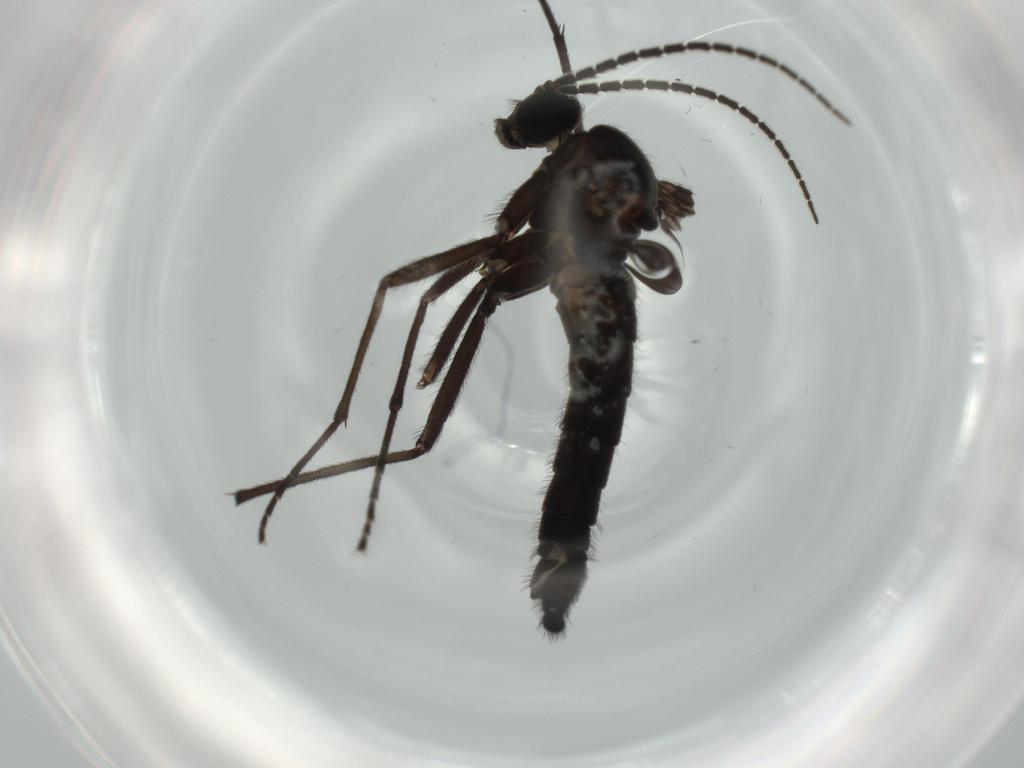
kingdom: Animalia
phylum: Arthropoda
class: Insecta
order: Diptera
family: Sciaridae
